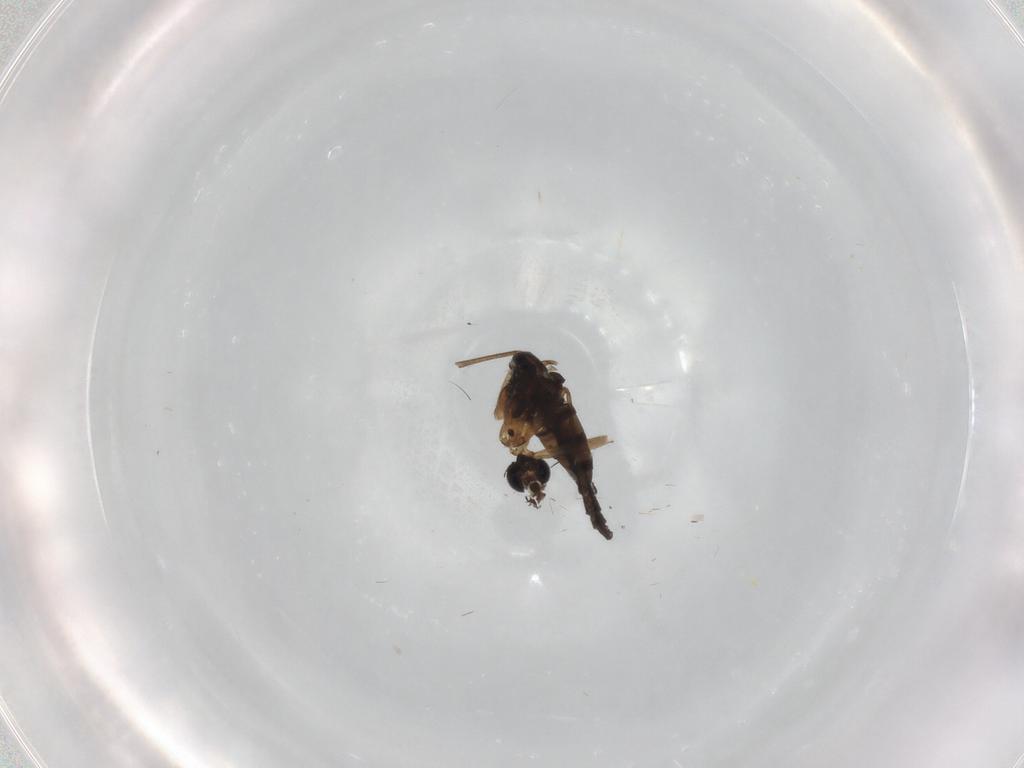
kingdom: Animalia
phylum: Arthropoda
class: Insecta
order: Diptera
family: Sciaridae
